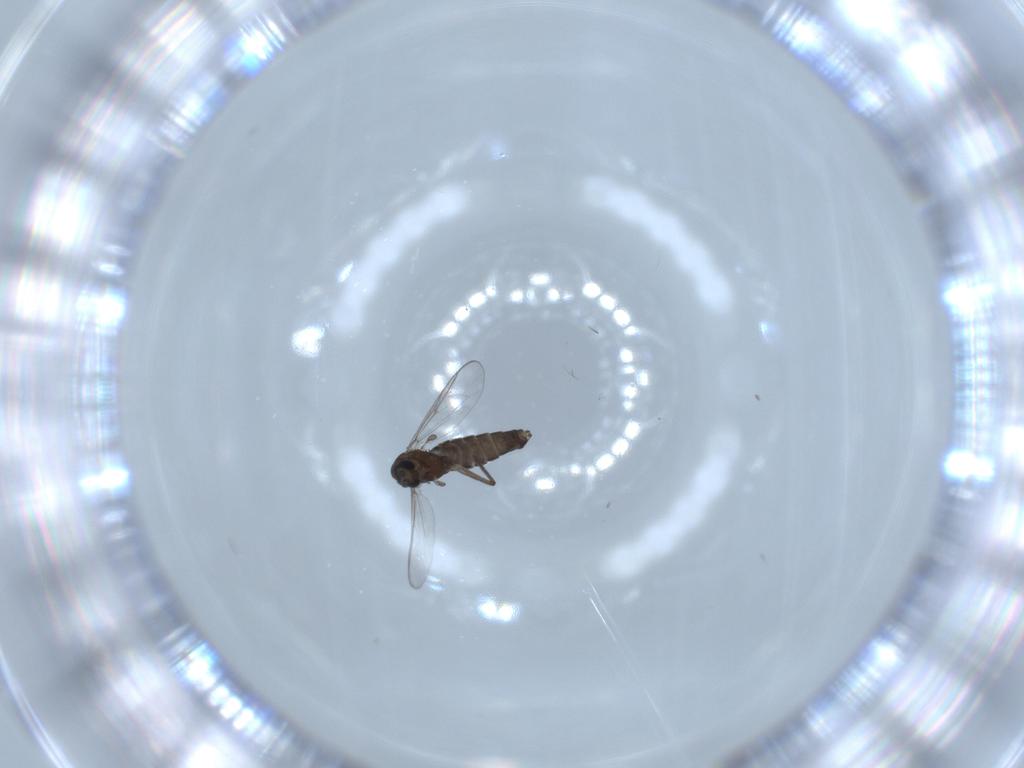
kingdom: Animalia
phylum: Arthropoda
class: Insecta
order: Diptera
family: Chironomidae
